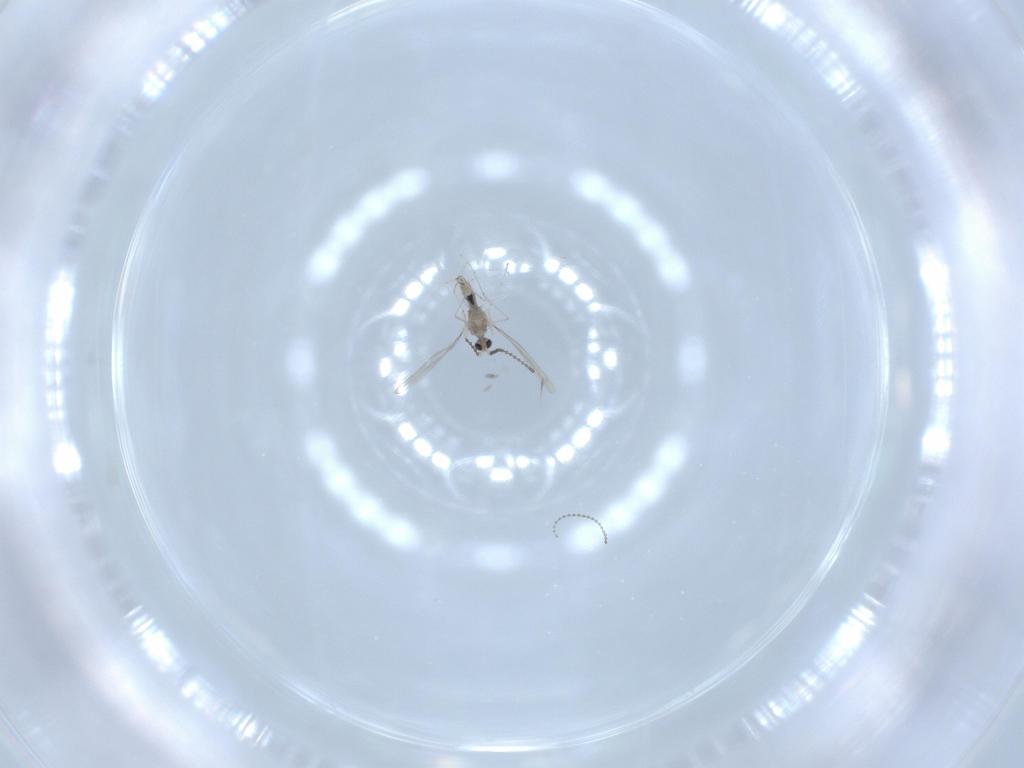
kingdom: Animalia
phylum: Arthropoda
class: Insecta
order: Diptera
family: Cecidomyiidae
